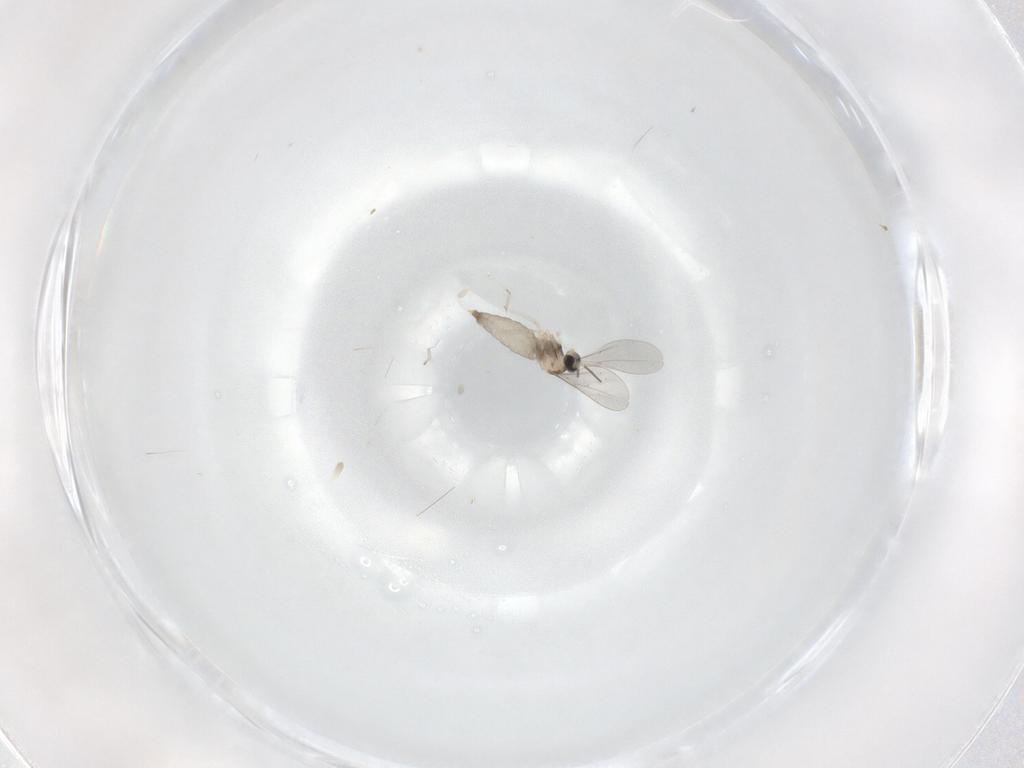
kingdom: Animalia
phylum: Arthropoda
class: Insecta
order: Diptera
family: Cecidomyiidae
